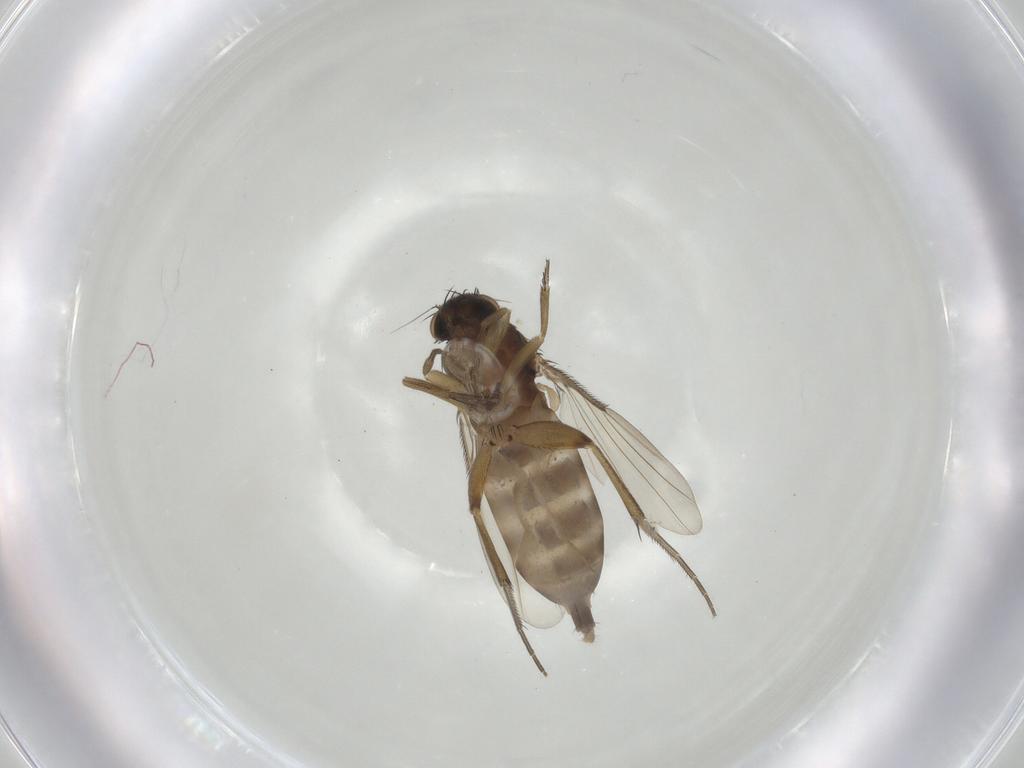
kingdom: Animalia
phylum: Arthropoda
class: Insecta
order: Diptera
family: Phoridae
